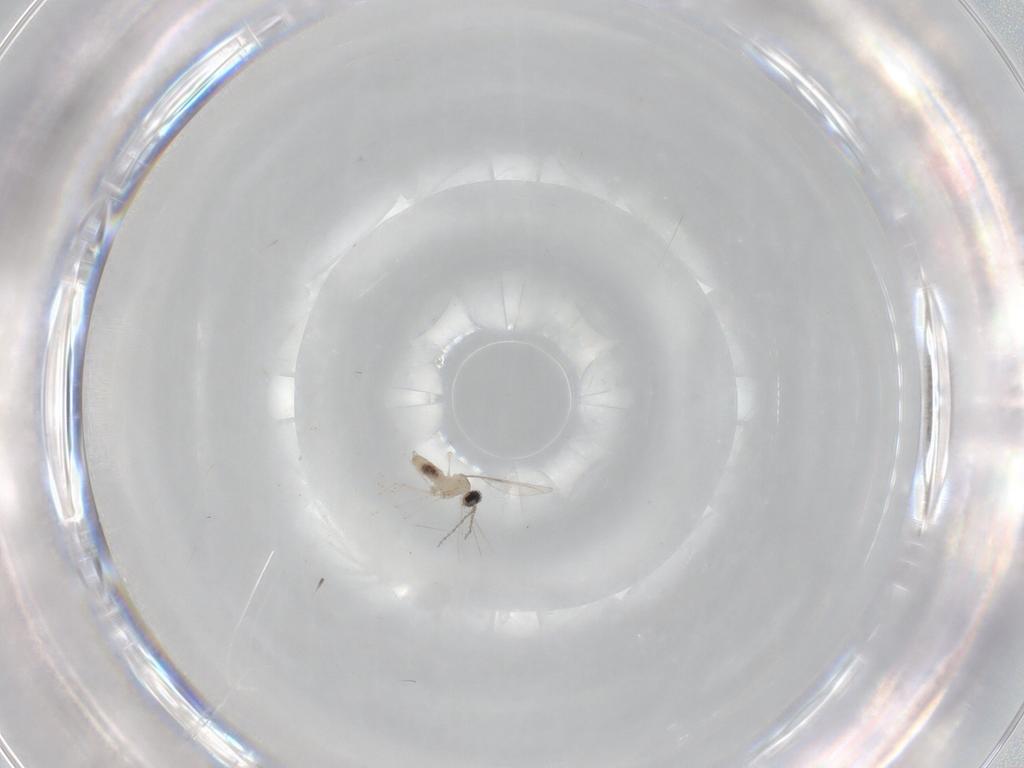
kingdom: Animalia
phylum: Arthropoda
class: Insecta
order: Diptera
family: Cecidomyiidae
